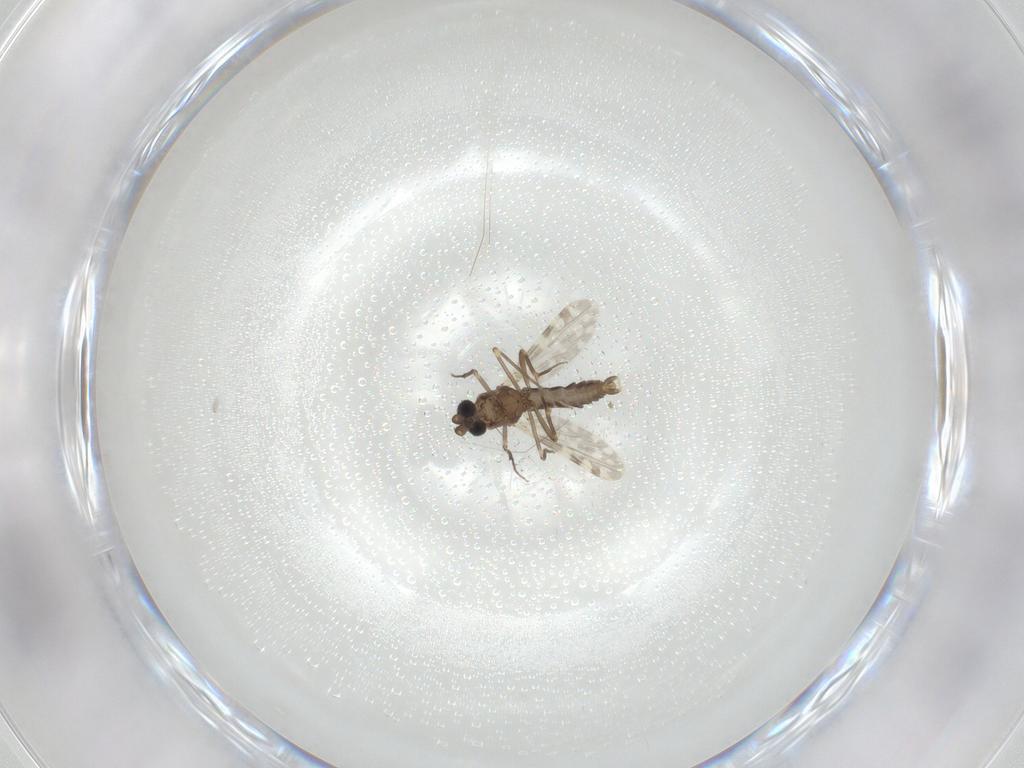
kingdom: Animalia
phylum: Arthropoda
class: Insecta
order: Diptera
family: Ceratopogonidae
